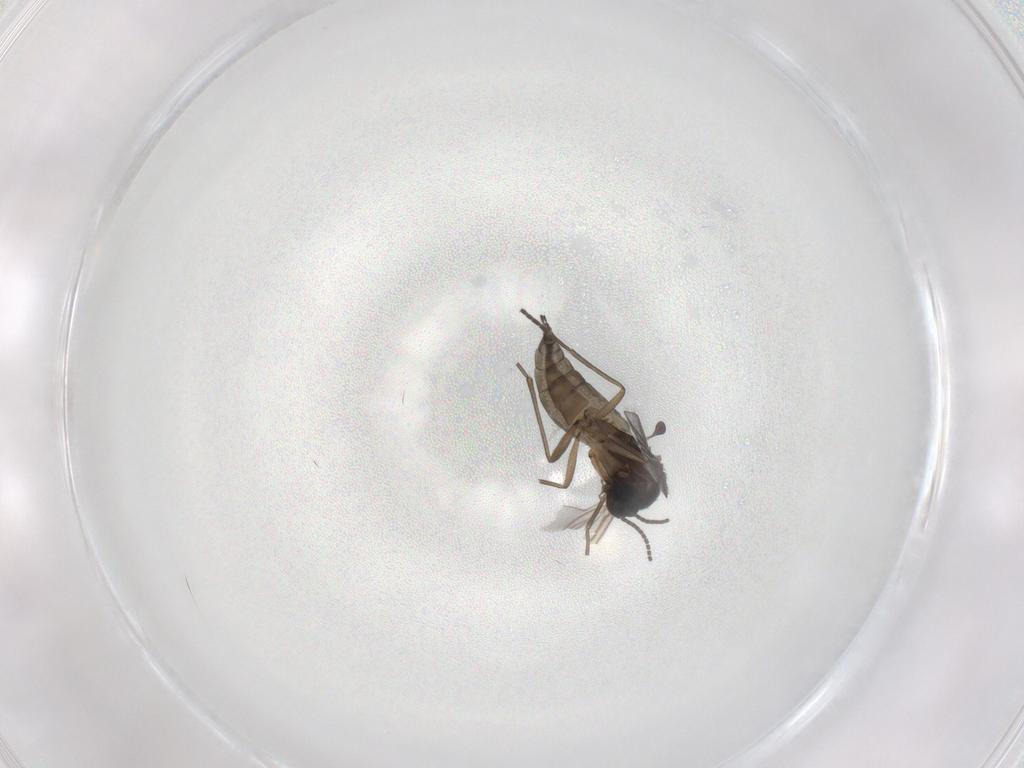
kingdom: Animalia
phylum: Arthropoda
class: Insecta
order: Diptera
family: Sciaridae
